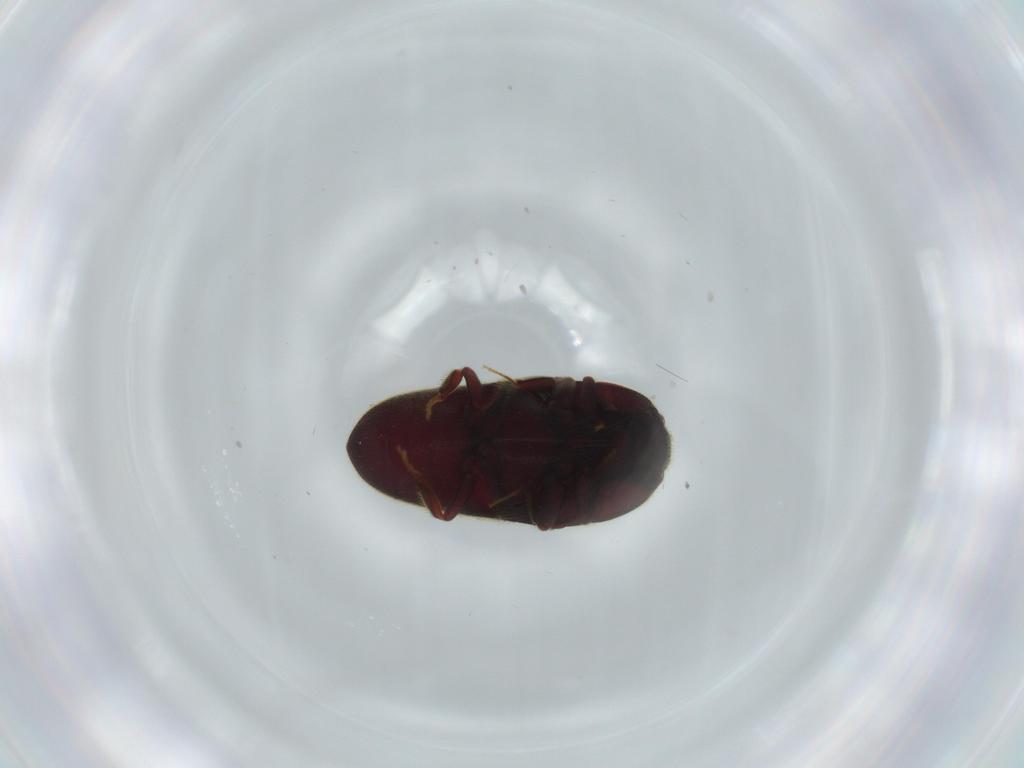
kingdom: Animalia
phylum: Arthropoda
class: Insecta
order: Coleoptera
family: Throscidae
